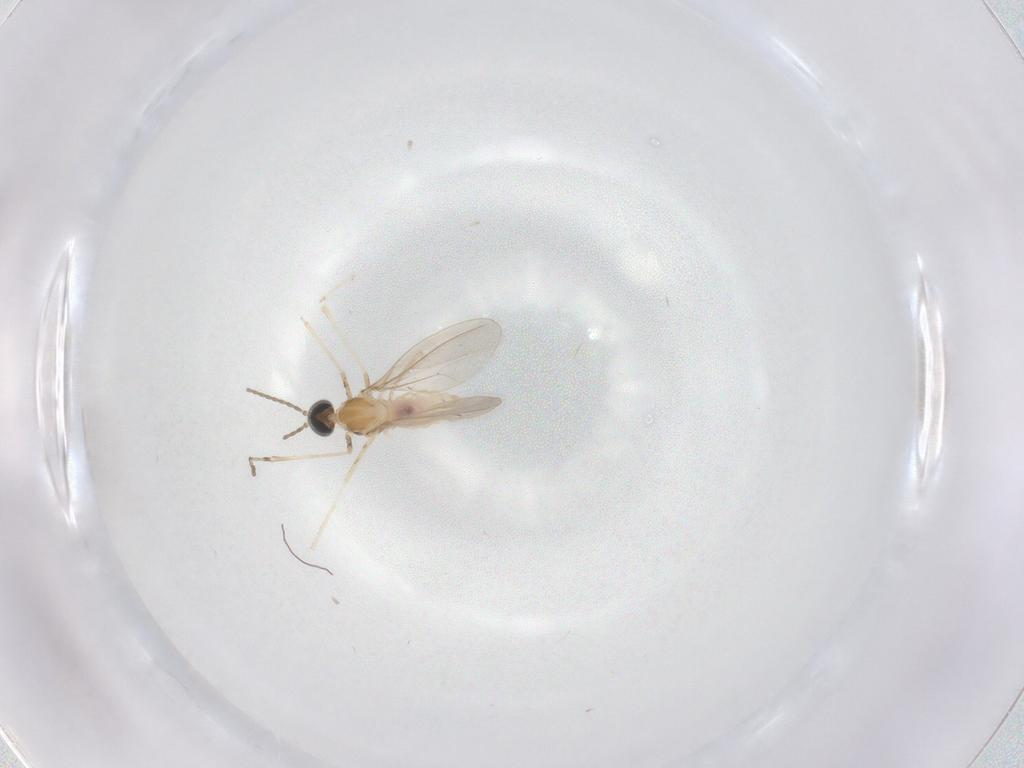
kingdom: Animalia
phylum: Arthropoda
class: Insecta
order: Diptera
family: Cecidomyiidae
